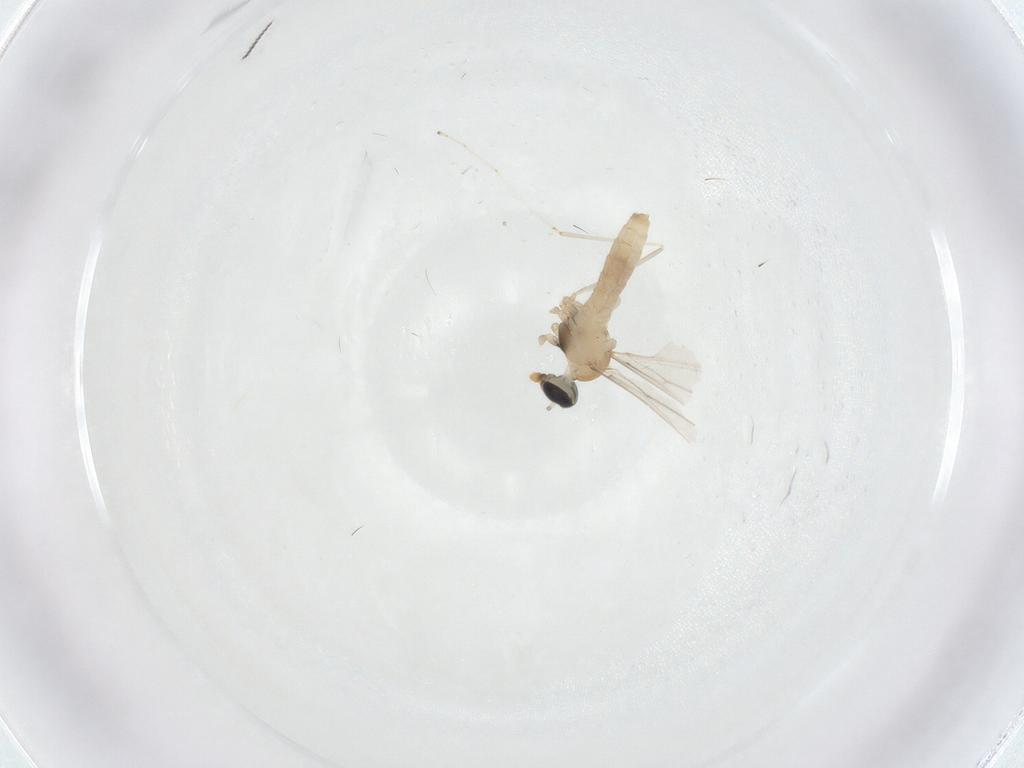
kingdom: Animalia
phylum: Arthropoda
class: Insecta
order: Diptera
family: Cecidomyiidae
